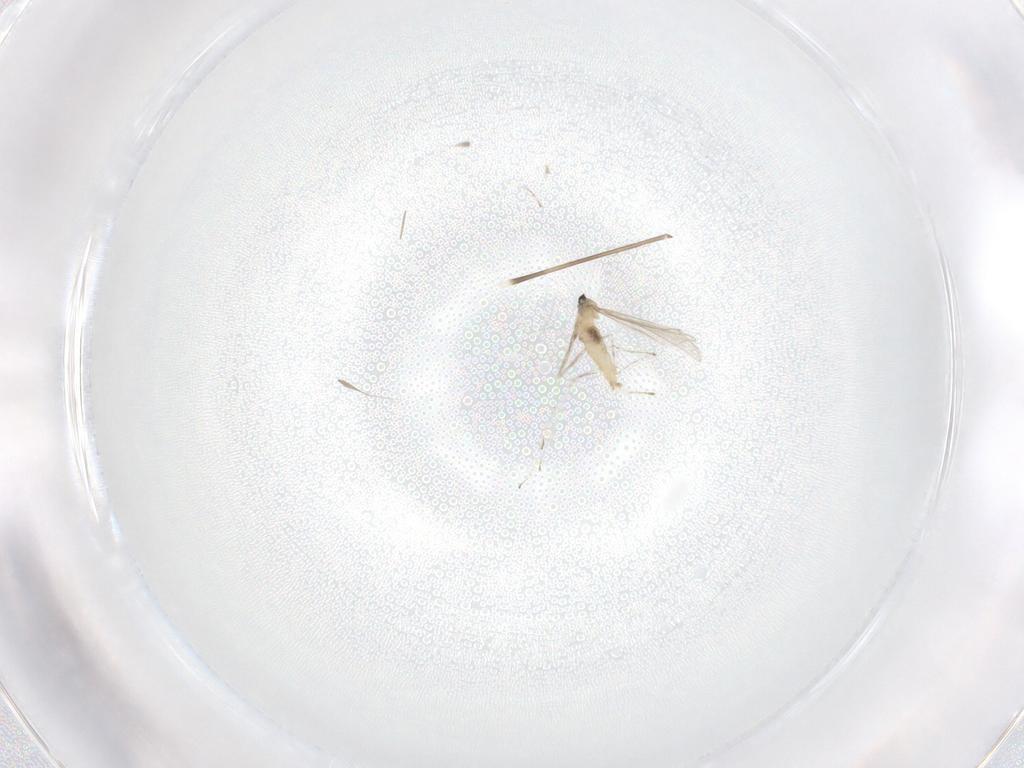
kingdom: Animalia
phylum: Arthropoda
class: Insecta
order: Diptera
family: Limoniidae
